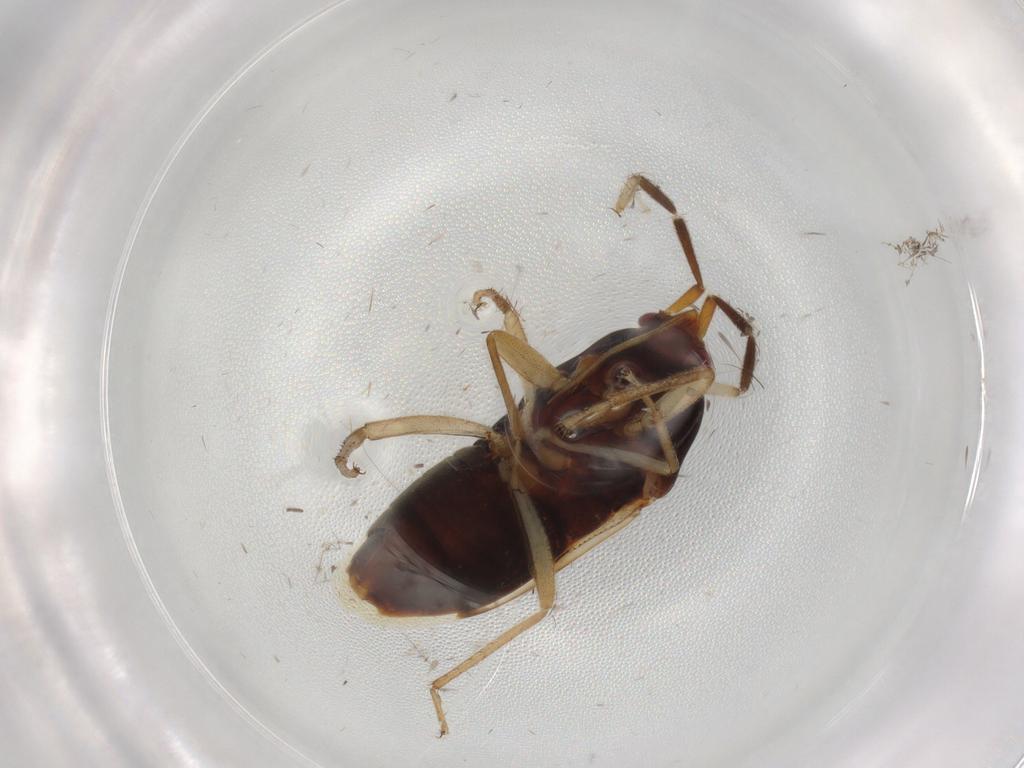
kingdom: Animalia
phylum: Arthropoda
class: Insecta
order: Hemiptera
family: Rhyparochromidae
